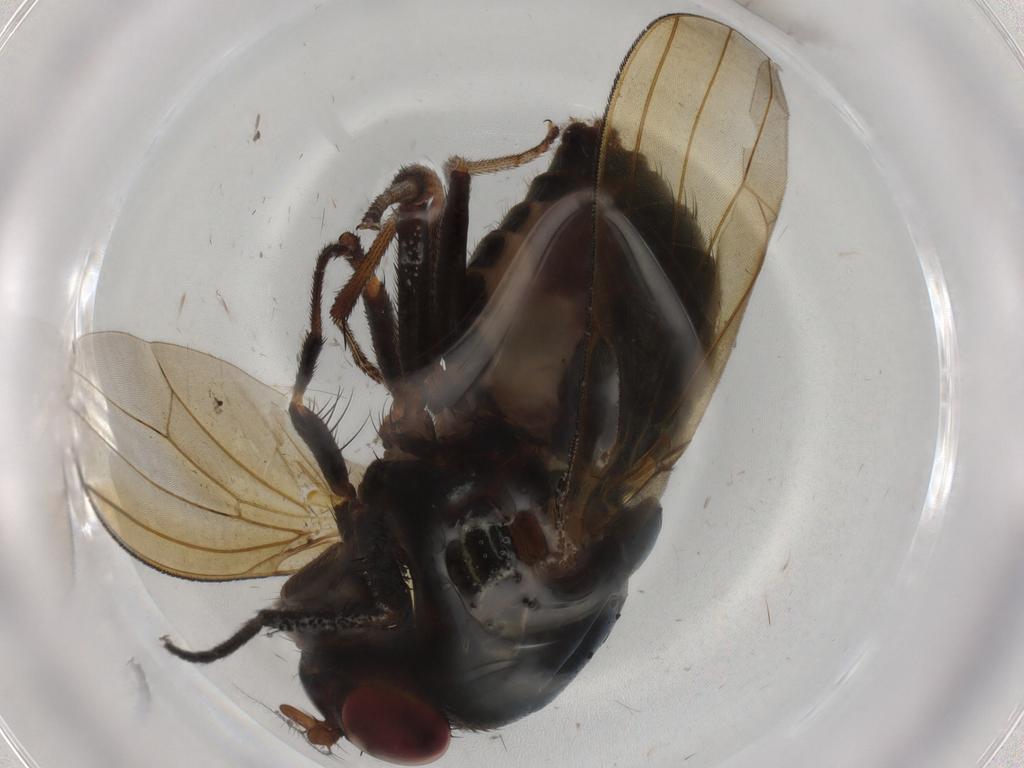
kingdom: Animalia
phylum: Arthropoda
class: Insecta
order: Diptera
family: Lauxaniidae
